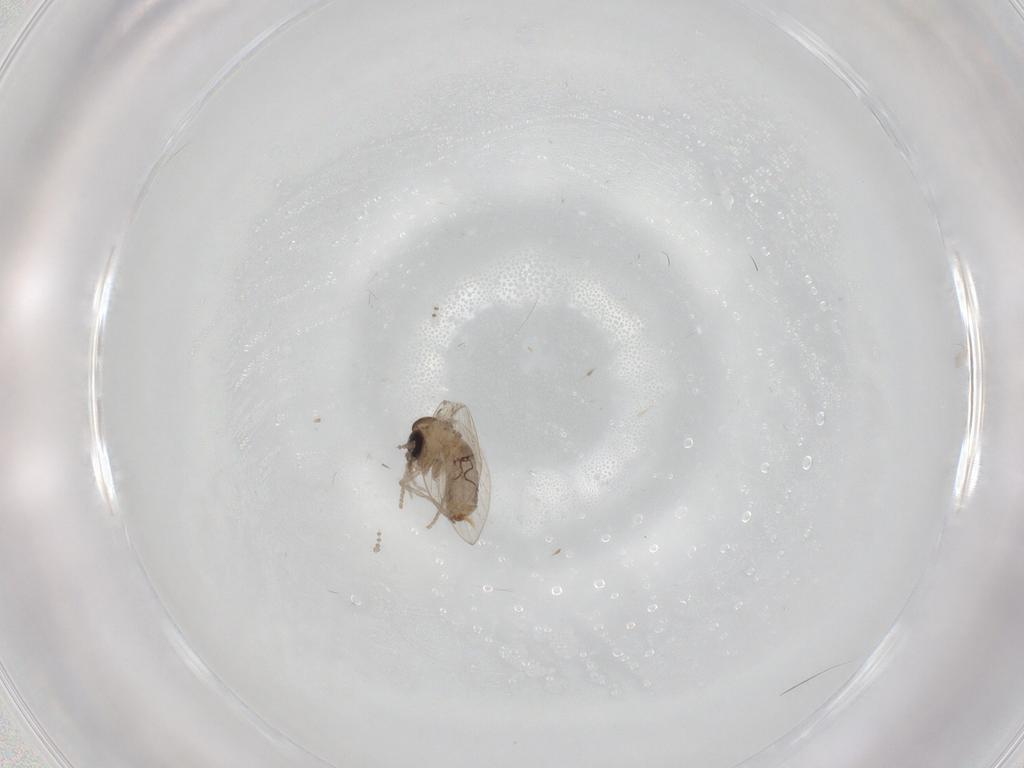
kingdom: Animalia
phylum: Arthropoda
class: Insecta
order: Diptera
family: Psychodidae
